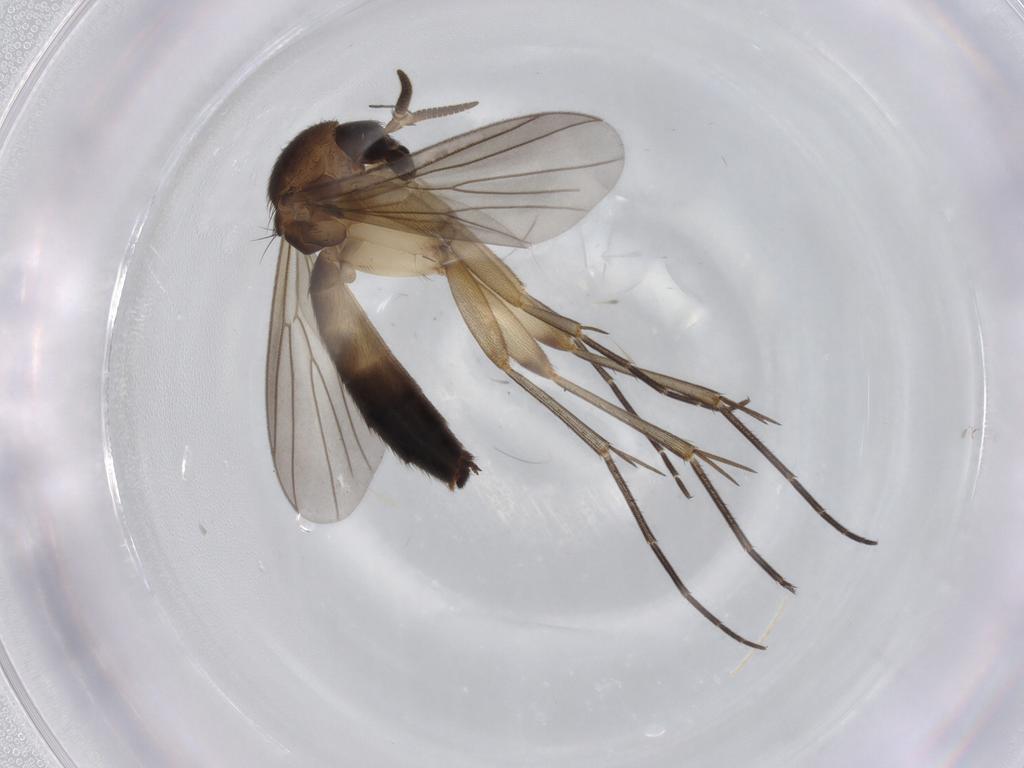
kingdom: Animalia
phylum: Arthropoda
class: Insecta
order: Diptera
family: Mycetophilidae
